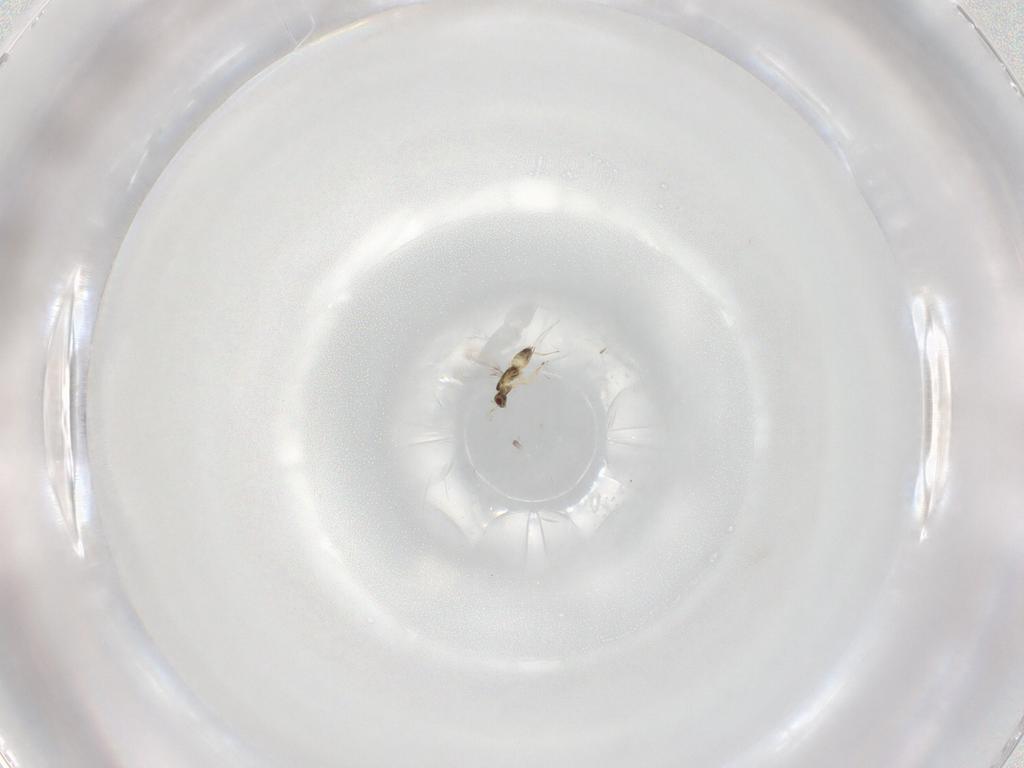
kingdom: Animalia
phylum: Arthropoda
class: Insecta
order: Hymenoptera
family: Mymaridae
